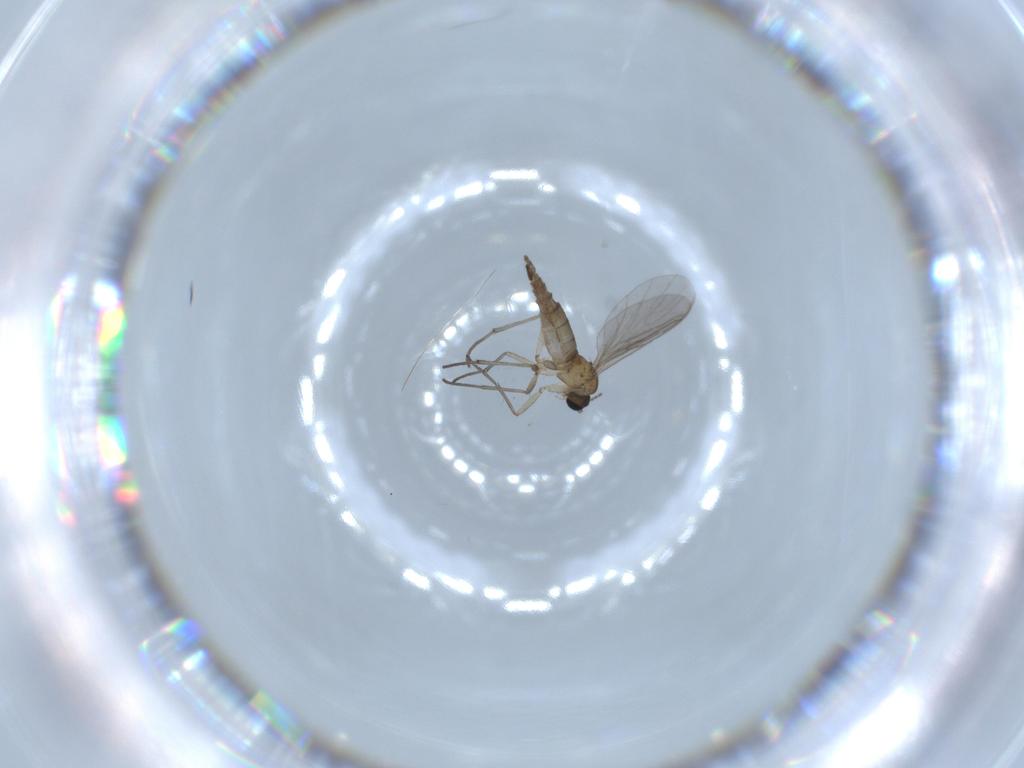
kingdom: Animalia
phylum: Arthropoda
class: Insecta
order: Diptera
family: Sciaridae
